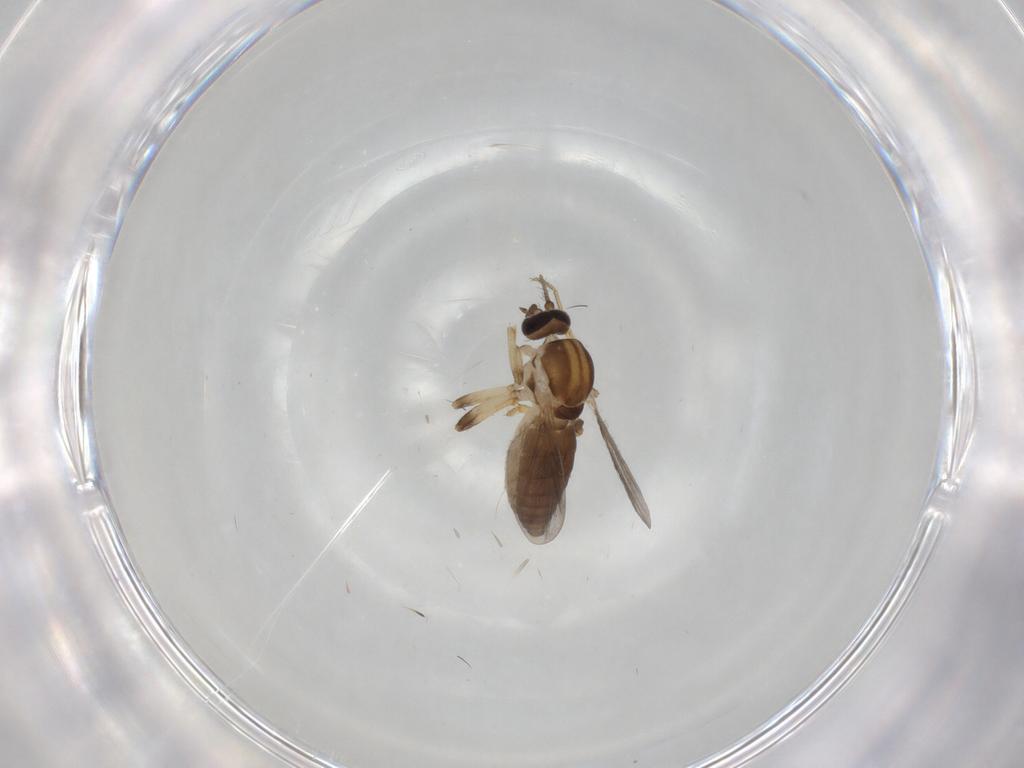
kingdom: Animalia
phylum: Arthropoda
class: Insecta
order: Diptera
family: Ceratopogonidae
